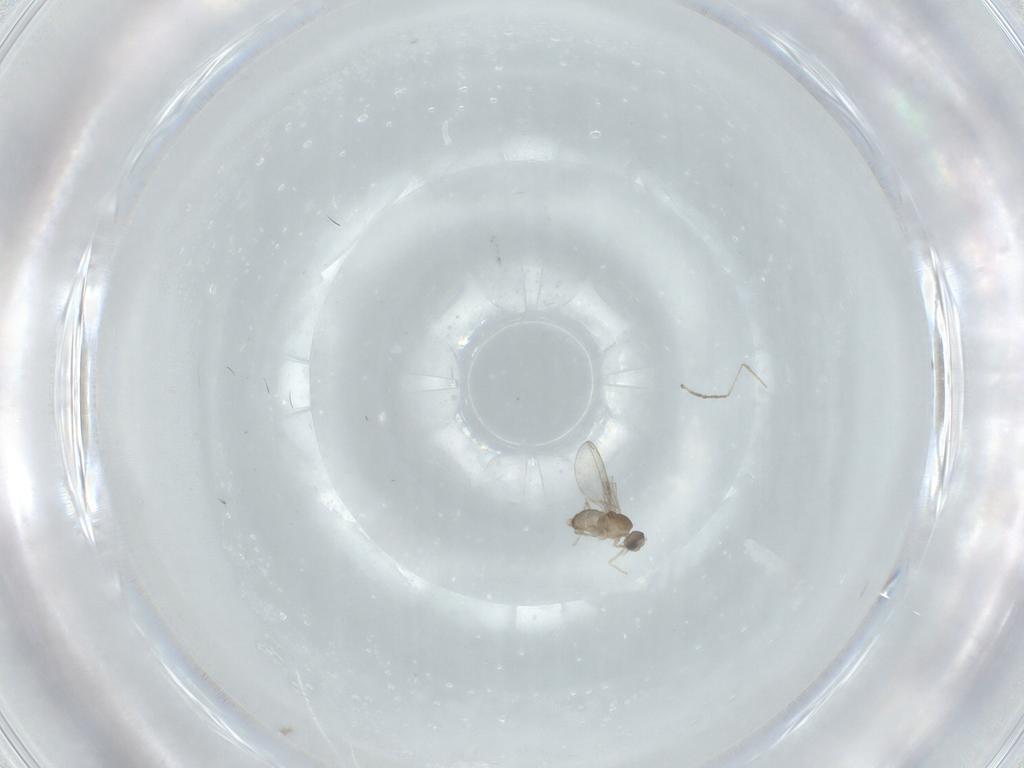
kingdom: Animalia
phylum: Arthropoda
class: Insecta
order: Diptera
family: Cecidomyiidae
